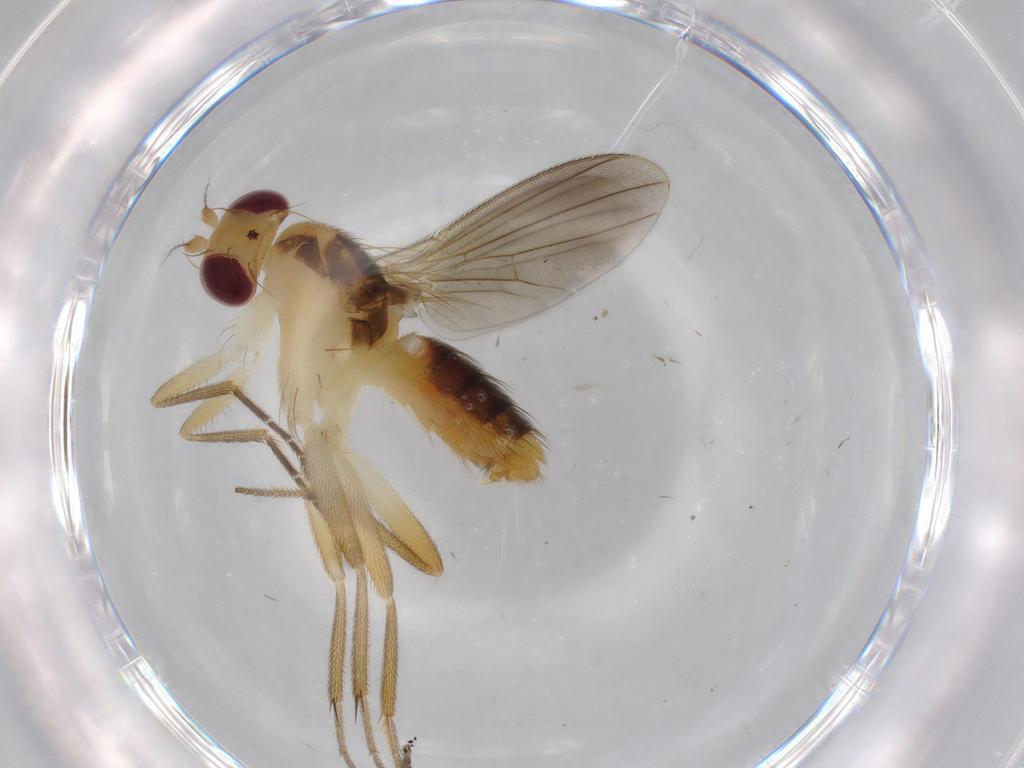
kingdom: Animalia
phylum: Arthropoda
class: Insecta
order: Diptera
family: Agromyzidae
